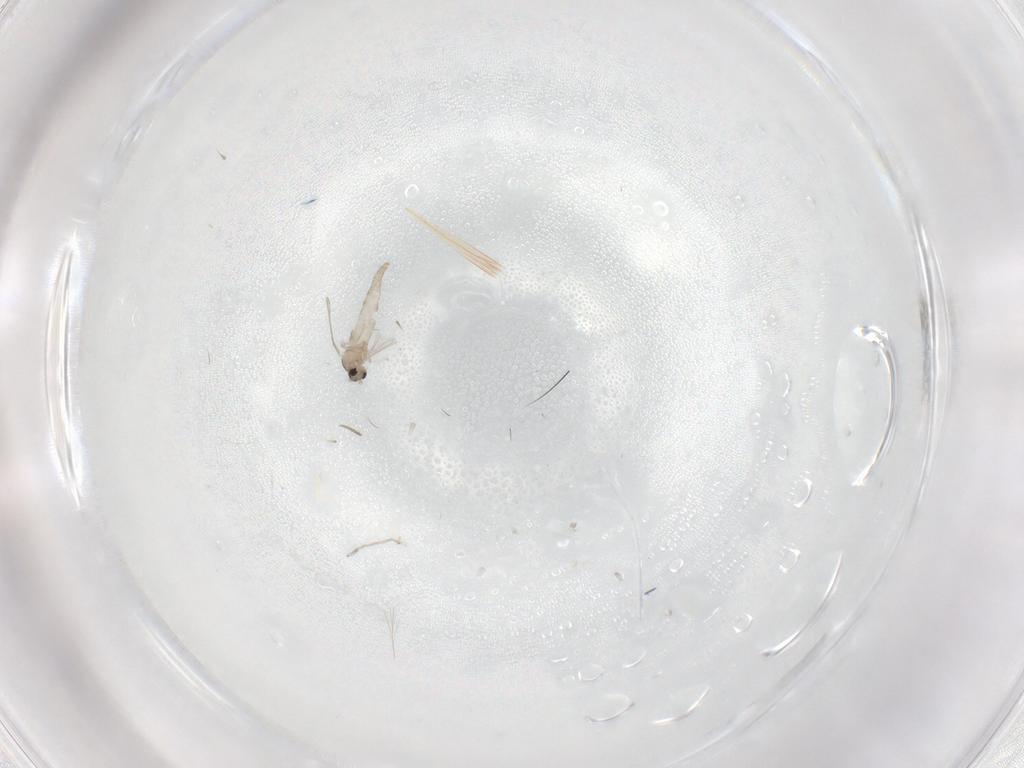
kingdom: Animalia
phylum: Arthropoda
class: Insecta
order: Diptera
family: Cecidomyiidae
